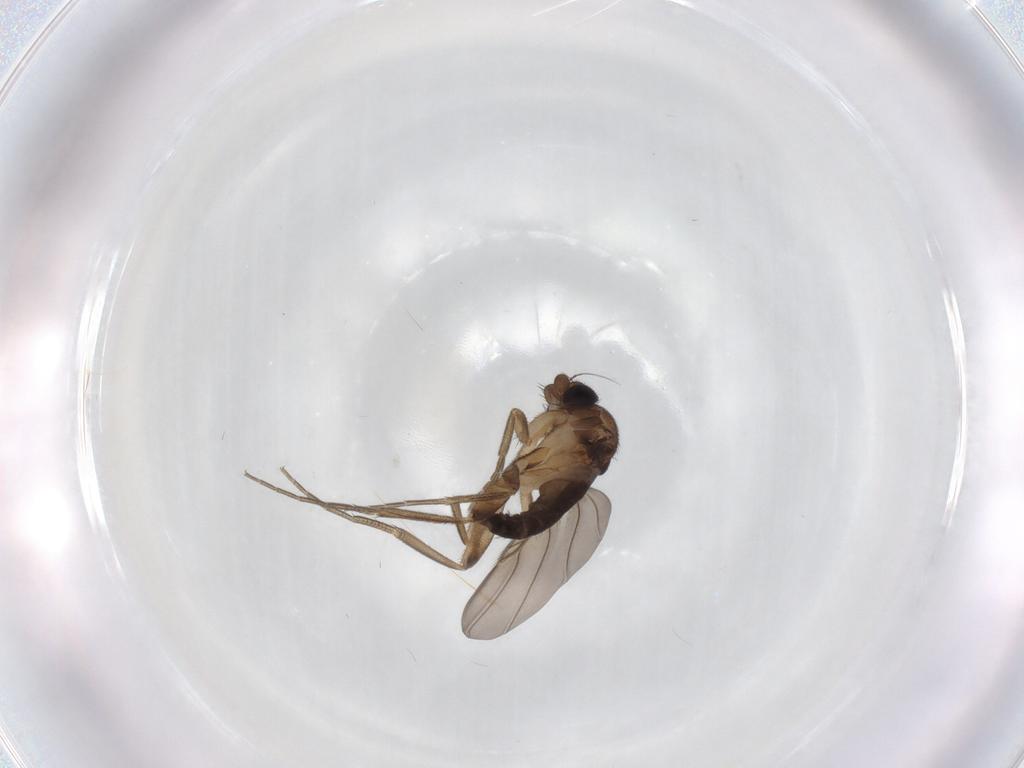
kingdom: Animalia
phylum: Arthropoda
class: Insecta
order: Diptera
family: Phoridae
